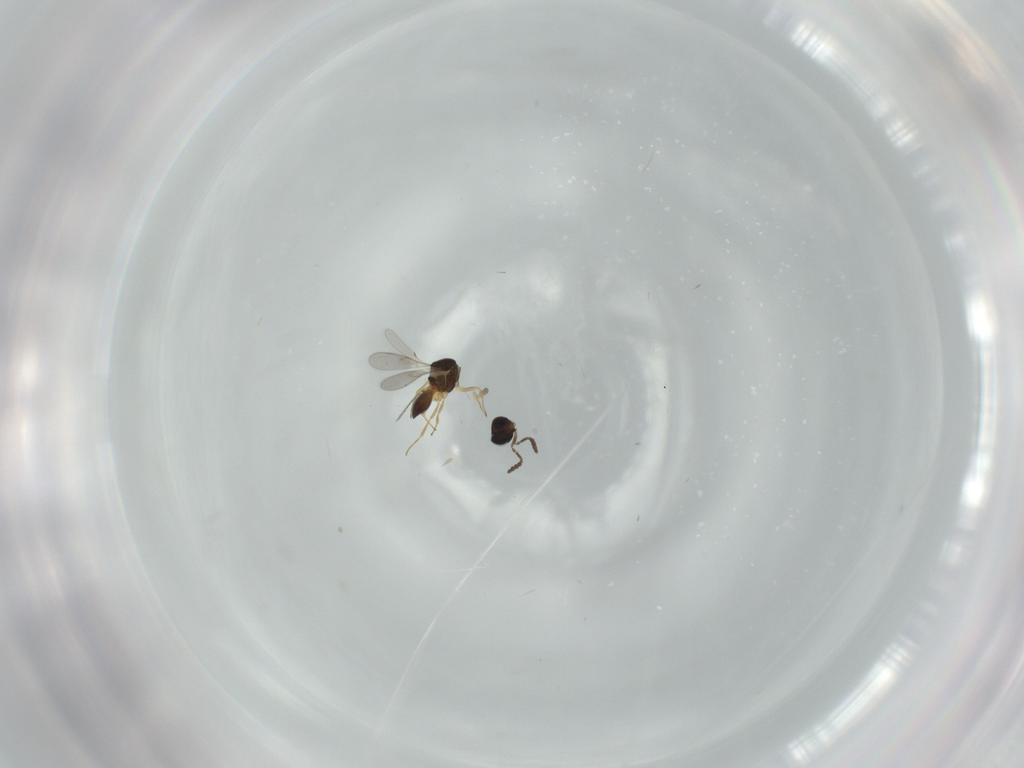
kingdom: Animalia
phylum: Arthropoda
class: Insecta
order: Hymenoptera
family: Scelionidae
